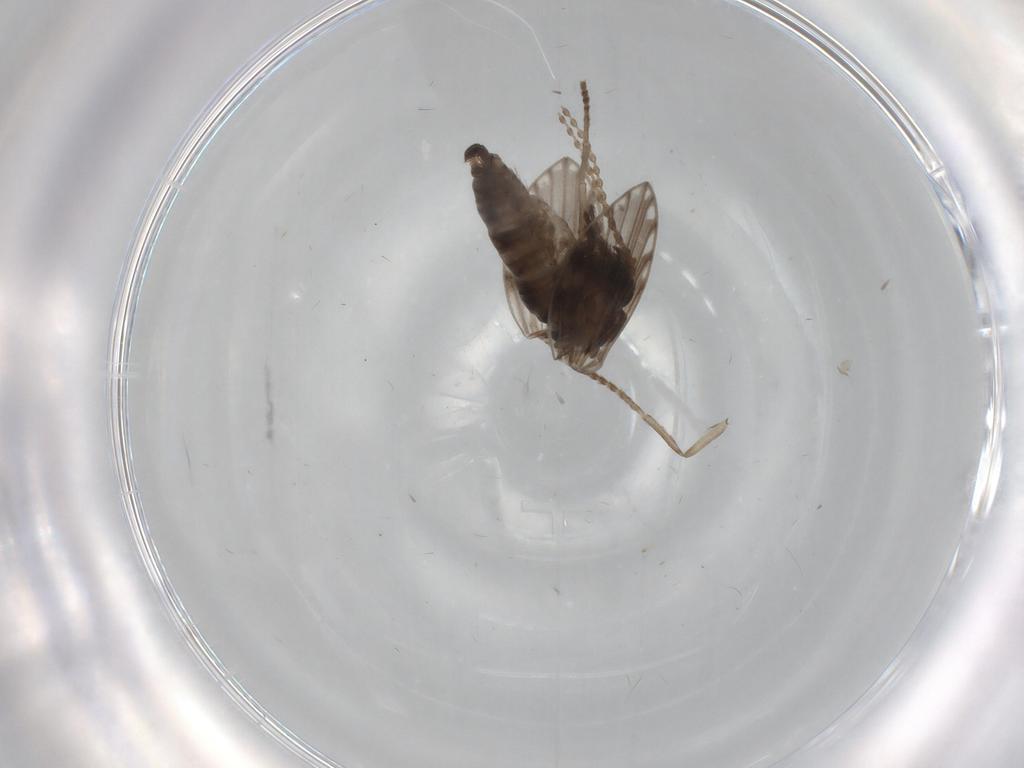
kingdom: Animalia
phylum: Arthropoda
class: Insecta
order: Diptera
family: Psychodidae
